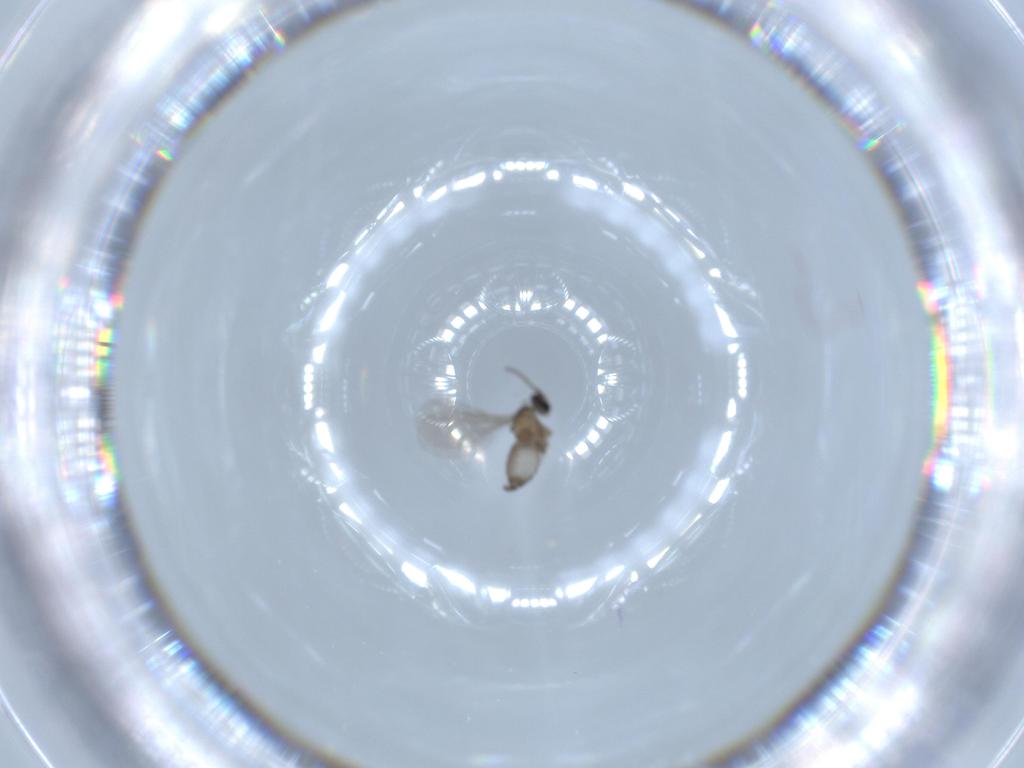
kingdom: Animalia
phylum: Arthropoda
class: Insecta
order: Diptera
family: Cecidomyiidae
